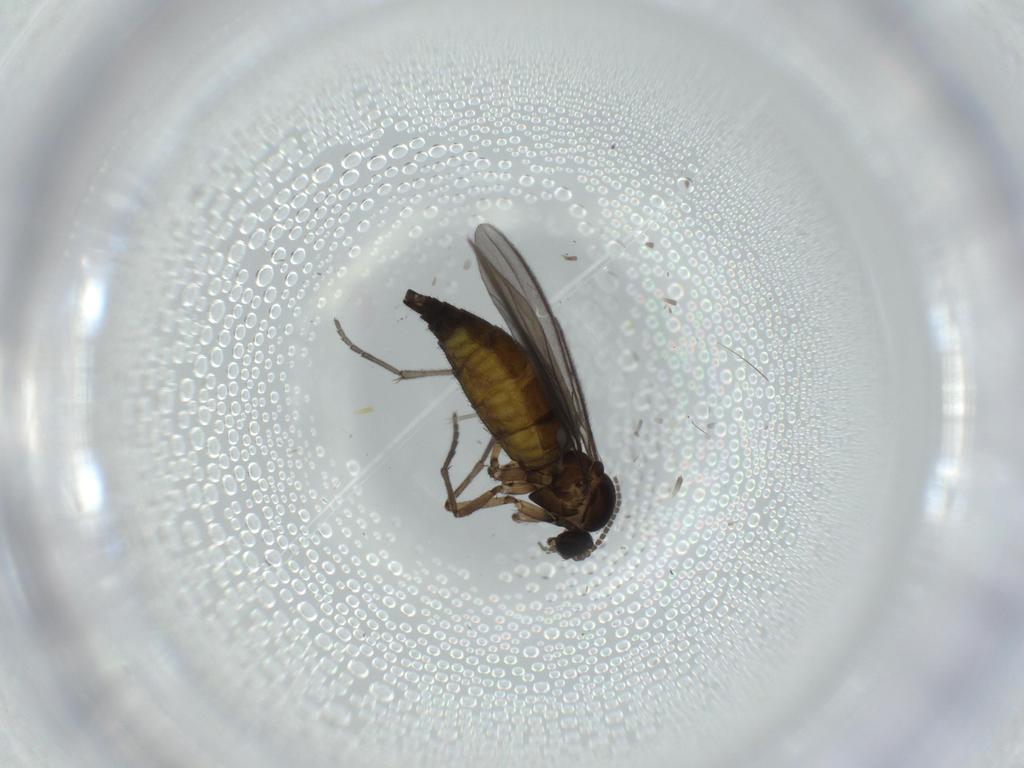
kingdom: Animalia
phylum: Arthropoda
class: Insecta
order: Diptera
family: Sciaridae
